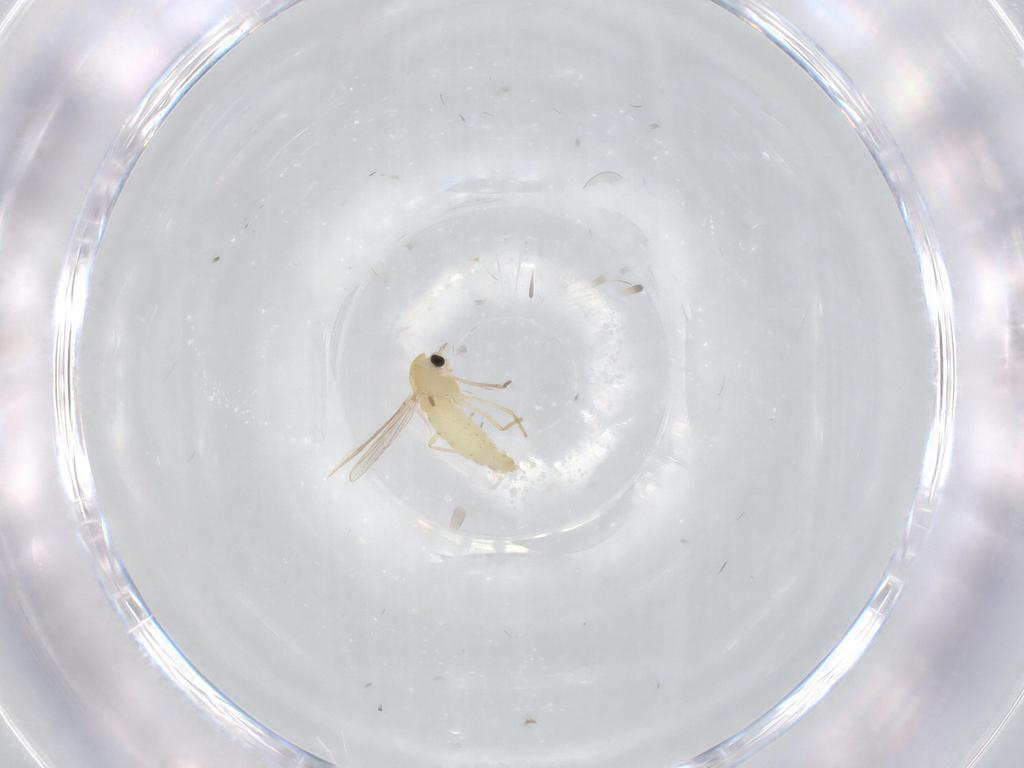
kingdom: Animalia
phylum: Arthropoda
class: Insecta
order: Diptera
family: Chironomidae
